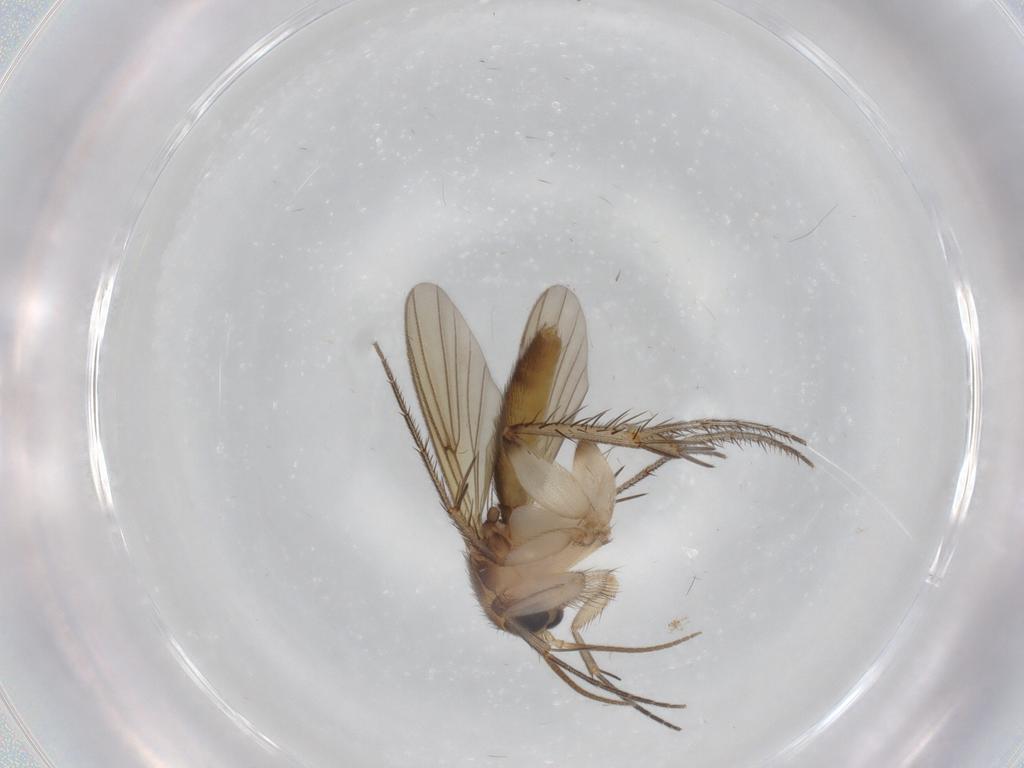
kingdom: Animalia
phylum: Arthropoda
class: Insecta
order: Diptera
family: Mycetophilidae
